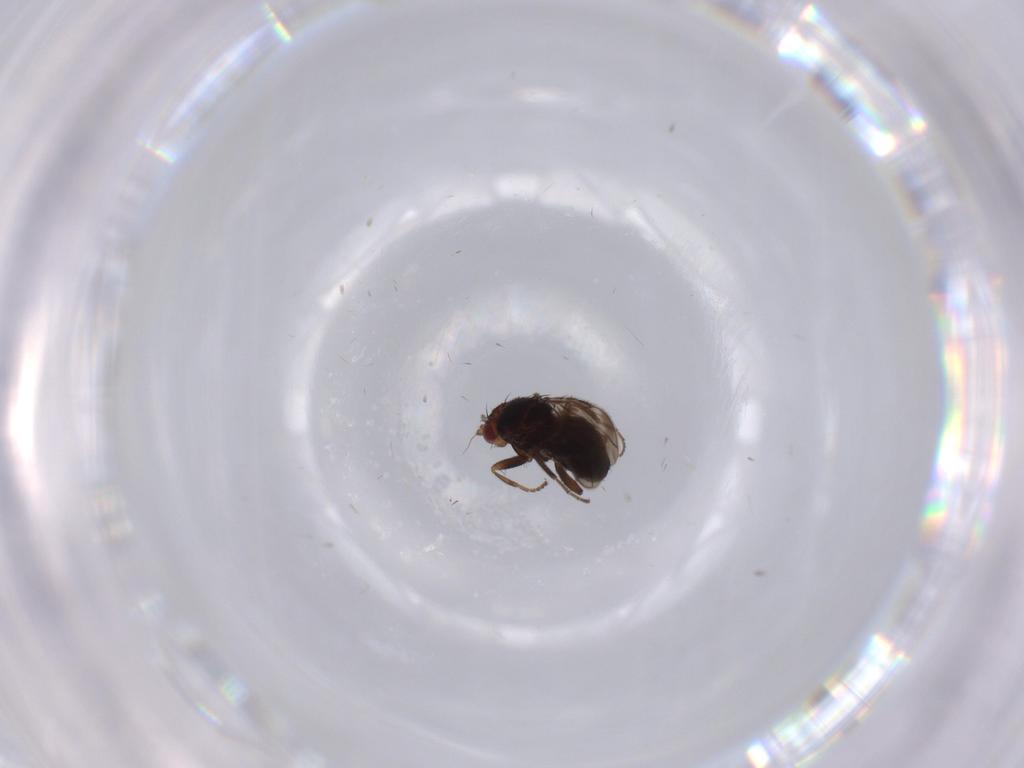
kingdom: Animalia
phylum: Arthropoda
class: Insecta
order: Diptera
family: Sphaeroceridae
